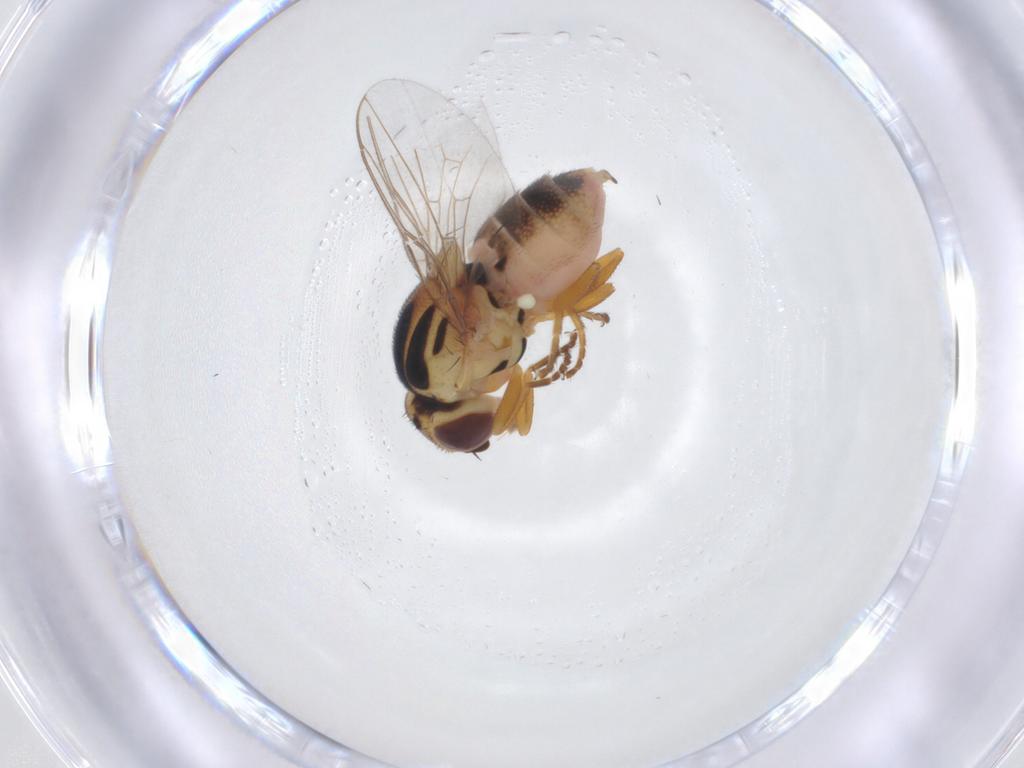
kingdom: Animalia
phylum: Arthropoda
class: Insecta
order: Diptera
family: Chloropidae
